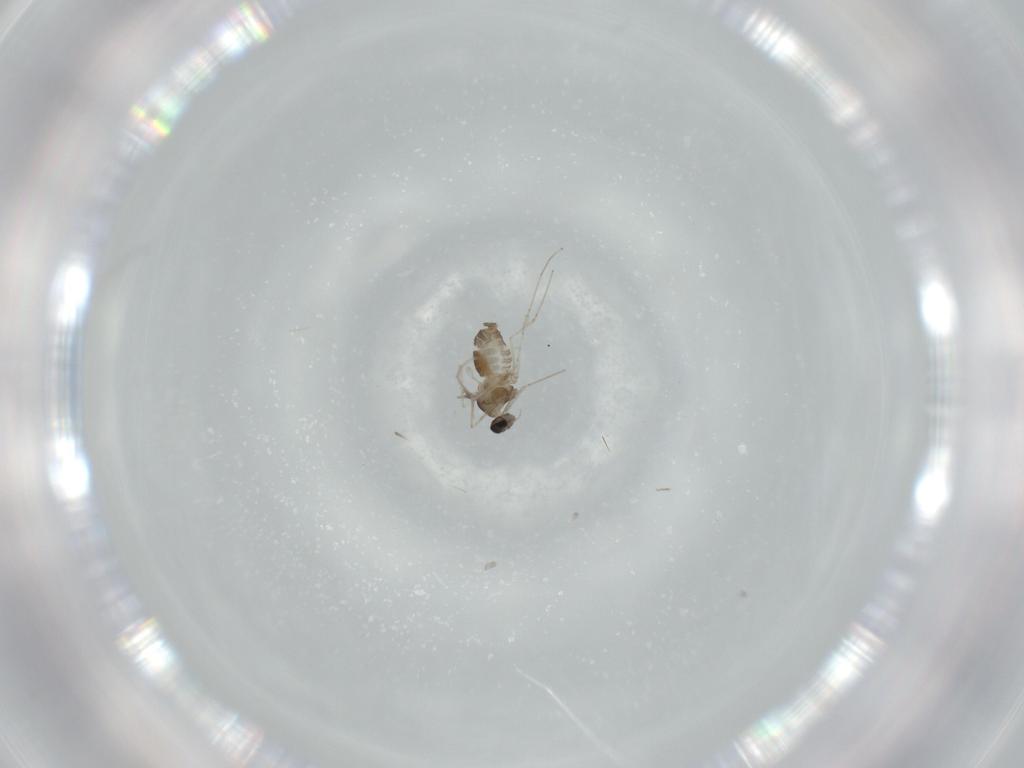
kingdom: Animalia
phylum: Arthropoda
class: Insecta
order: Diptera
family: Cecidomyiidae
